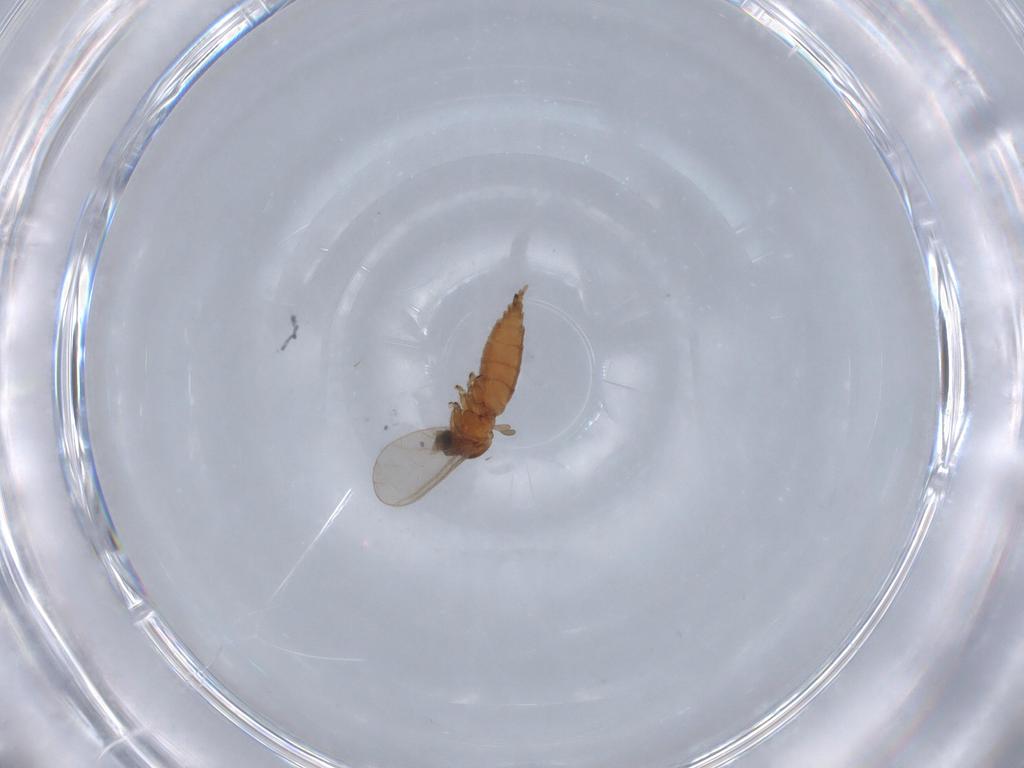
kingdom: Animalia
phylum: Arthropoda
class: Insecta
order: Diptera
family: Sciaridae
